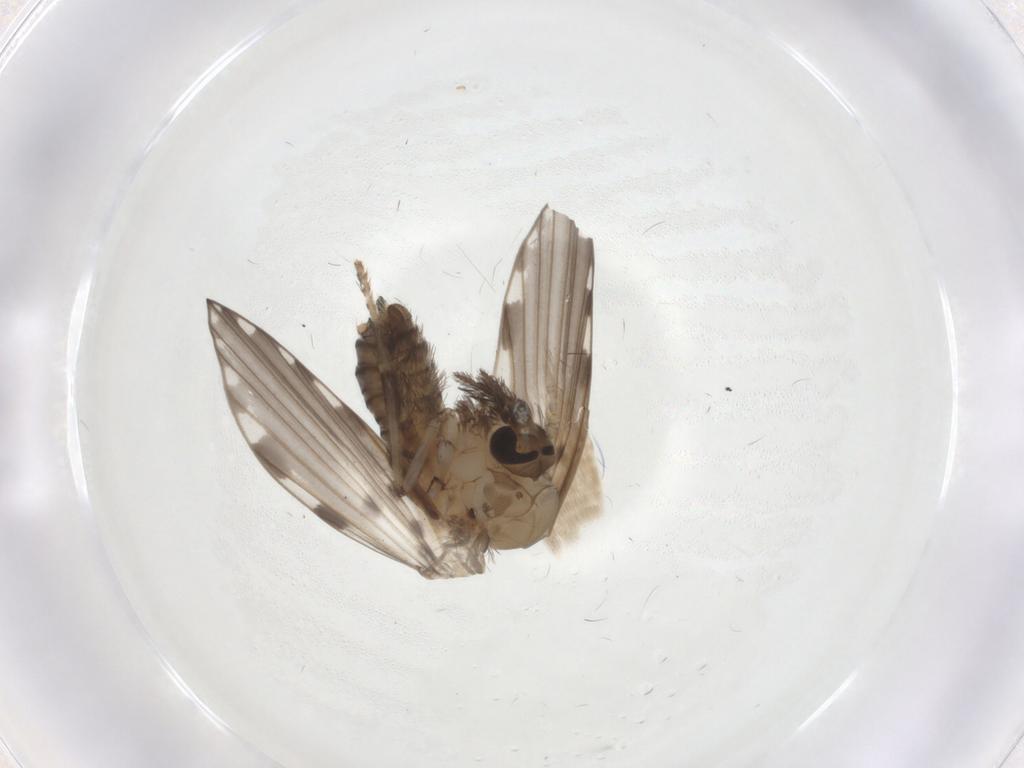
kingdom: Animalia
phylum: Arthropoda
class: Insecta
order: Diptera
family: Psychodidae
